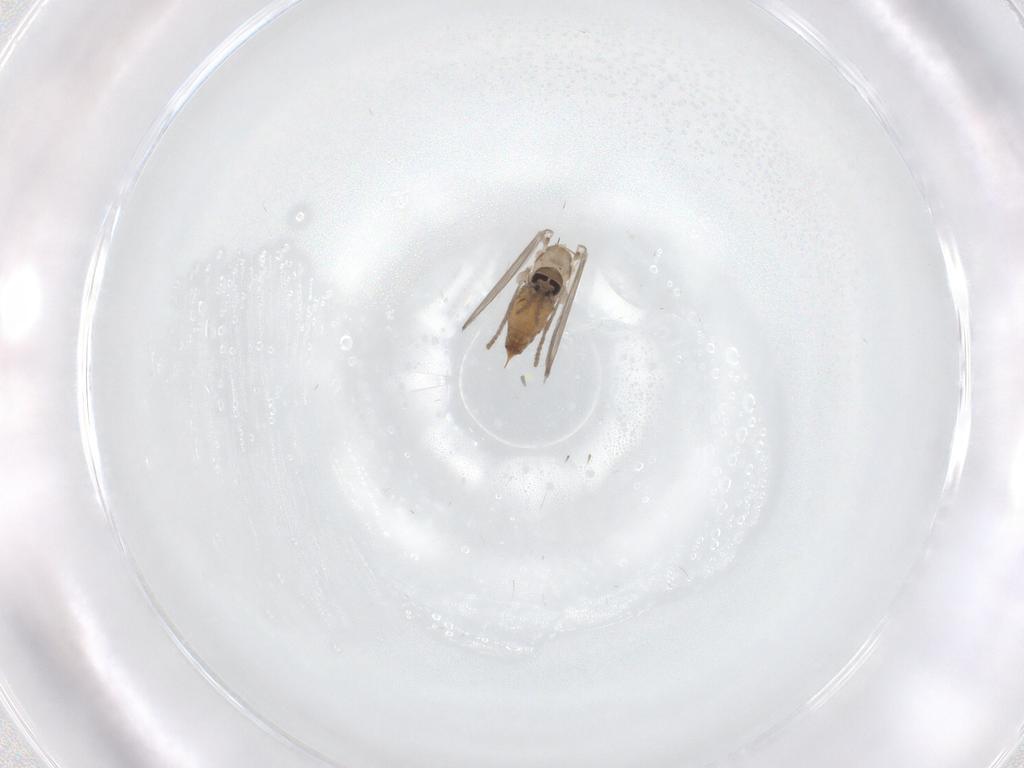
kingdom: Animalia
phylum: Arthropoda
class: Insecta
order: Diptera
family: Psychodidae
